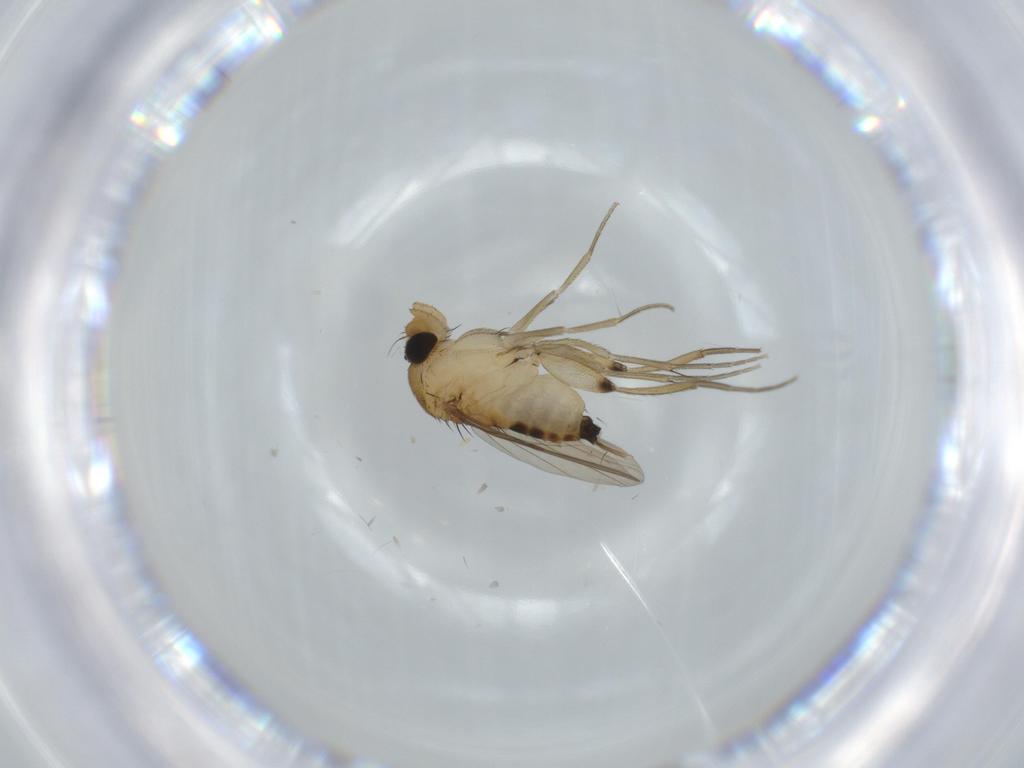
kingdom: Animalia
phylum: Arthropoda
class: Insecta
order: Diptera
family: Phoridae
